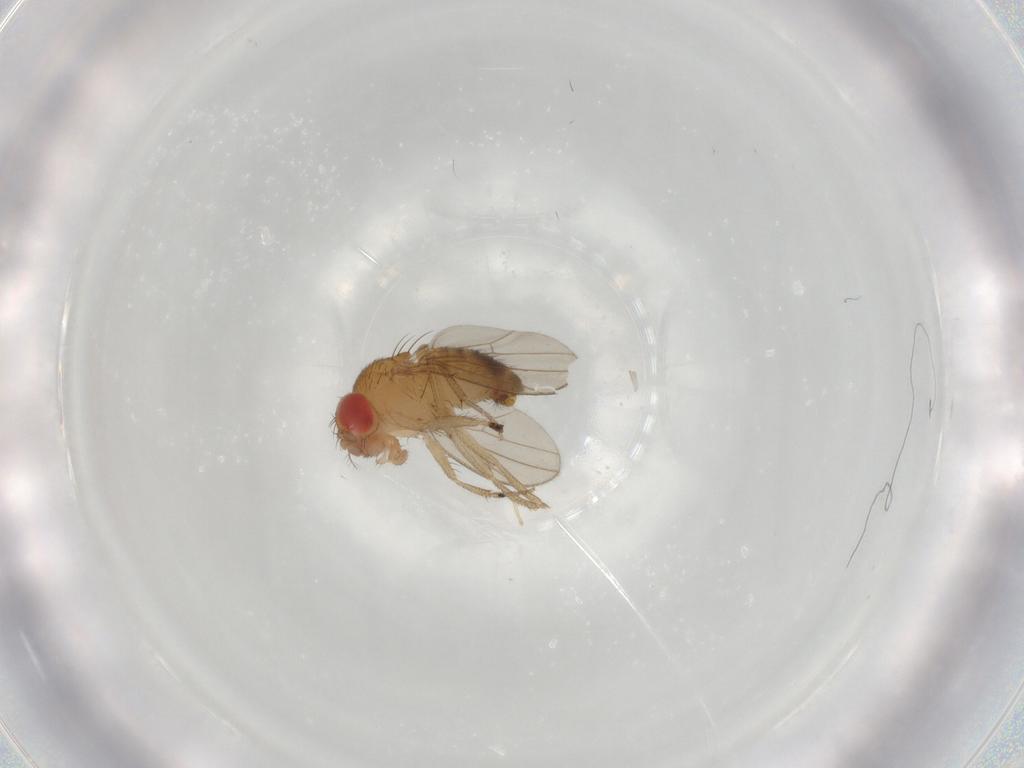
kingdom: Animalia
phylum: Arthropoda
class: Insecta
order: Diptera
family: Drosophilidae
